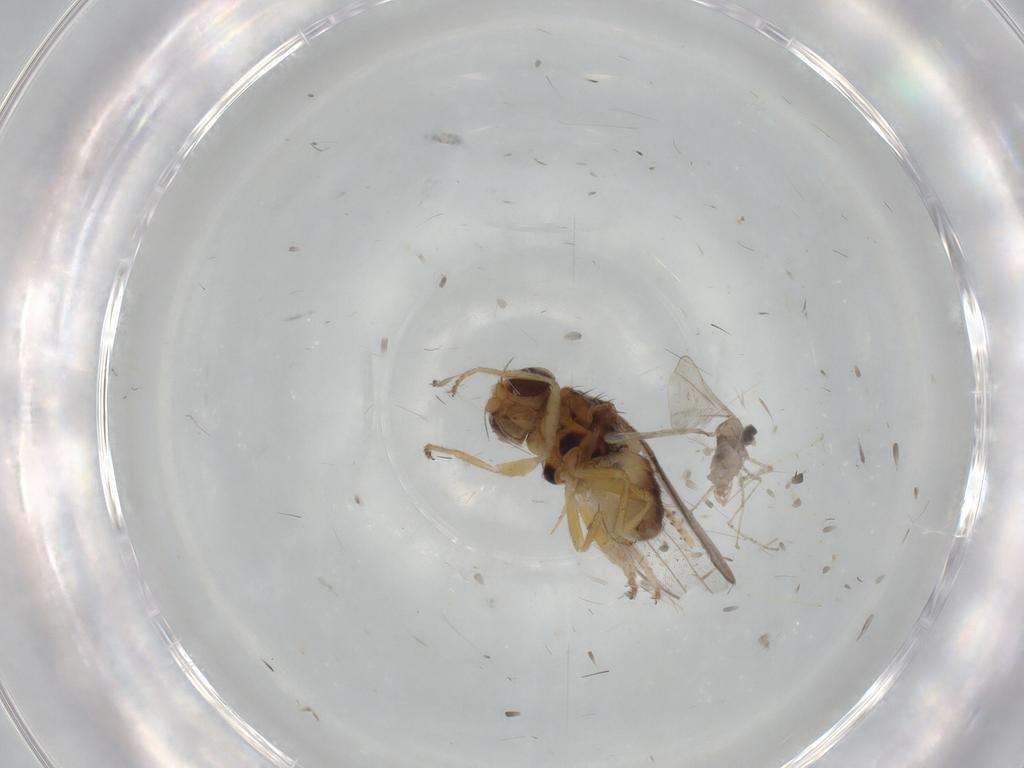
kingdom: Animalia
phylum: Arthropoda
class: Insecta
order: Diptera
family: Chloropidae
